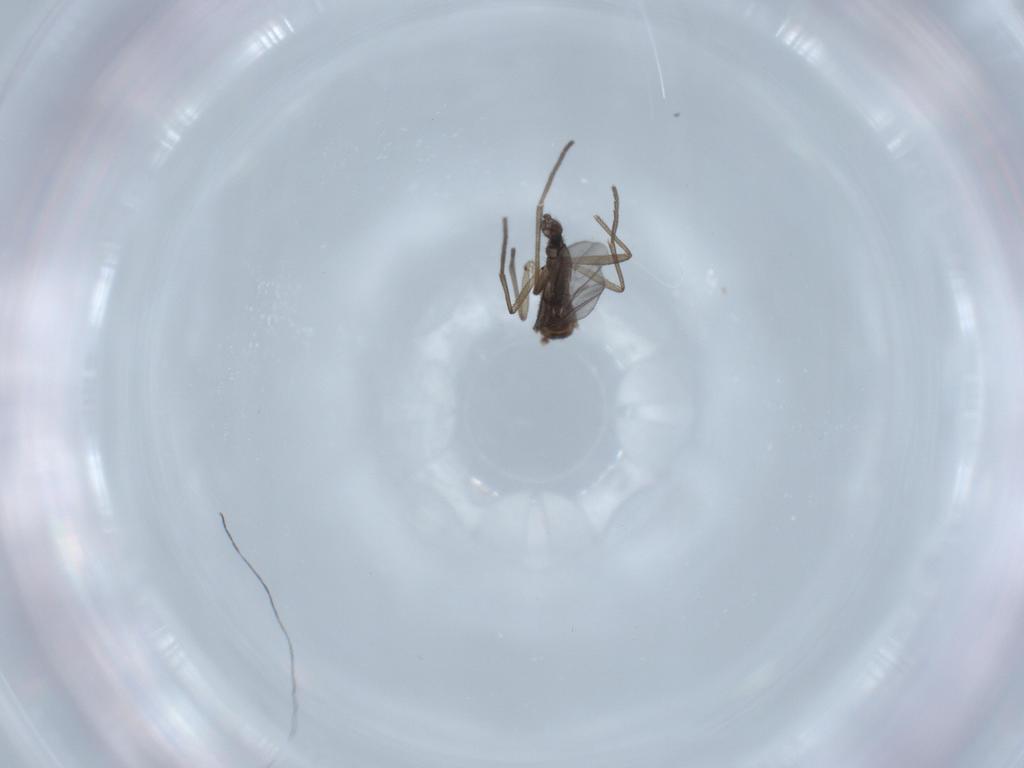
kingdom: Animalia
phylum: Arthropoda
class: Insecta
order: Diptera
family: Sciaridae
